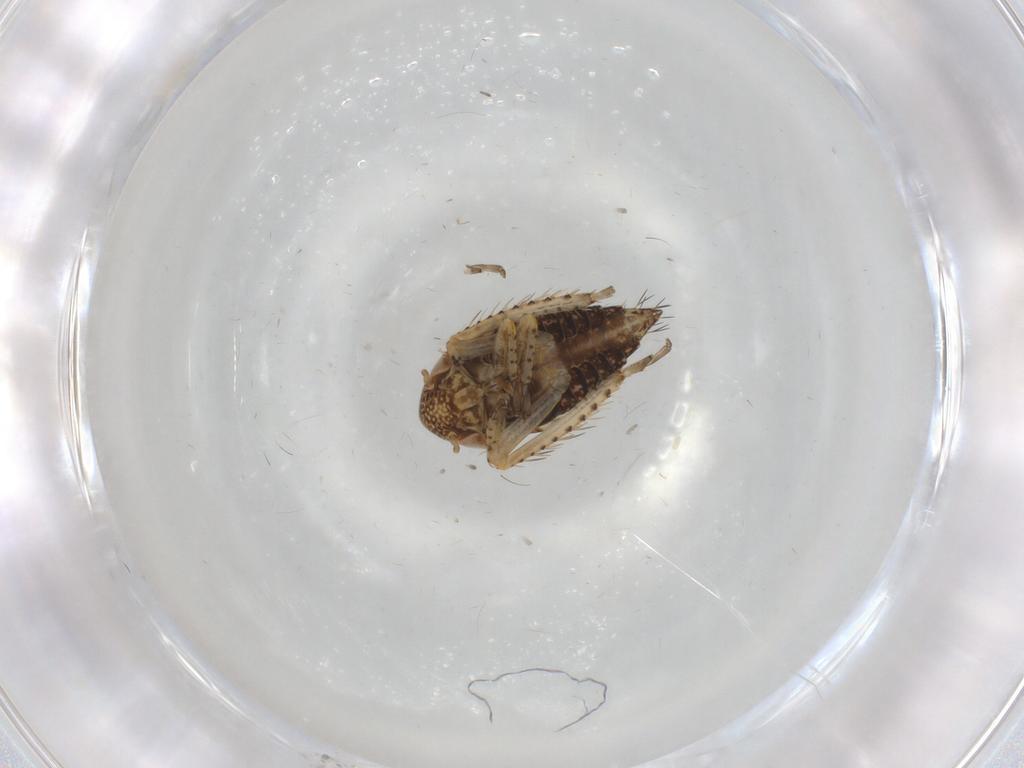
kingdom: Animalia
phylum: Arthropoda
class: Insecta
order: Hemiptera
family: Cicadellidae
